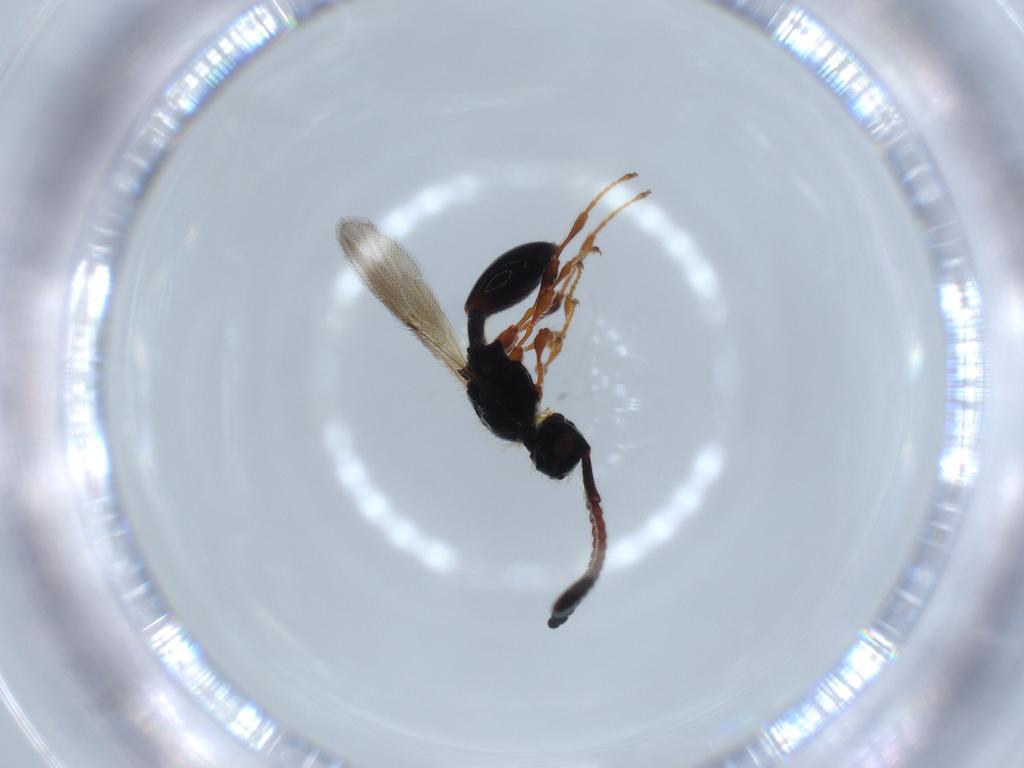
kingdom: Animalia
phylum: Arthropoda
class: Insecta
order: Hymenoptera
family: Diapriidae
